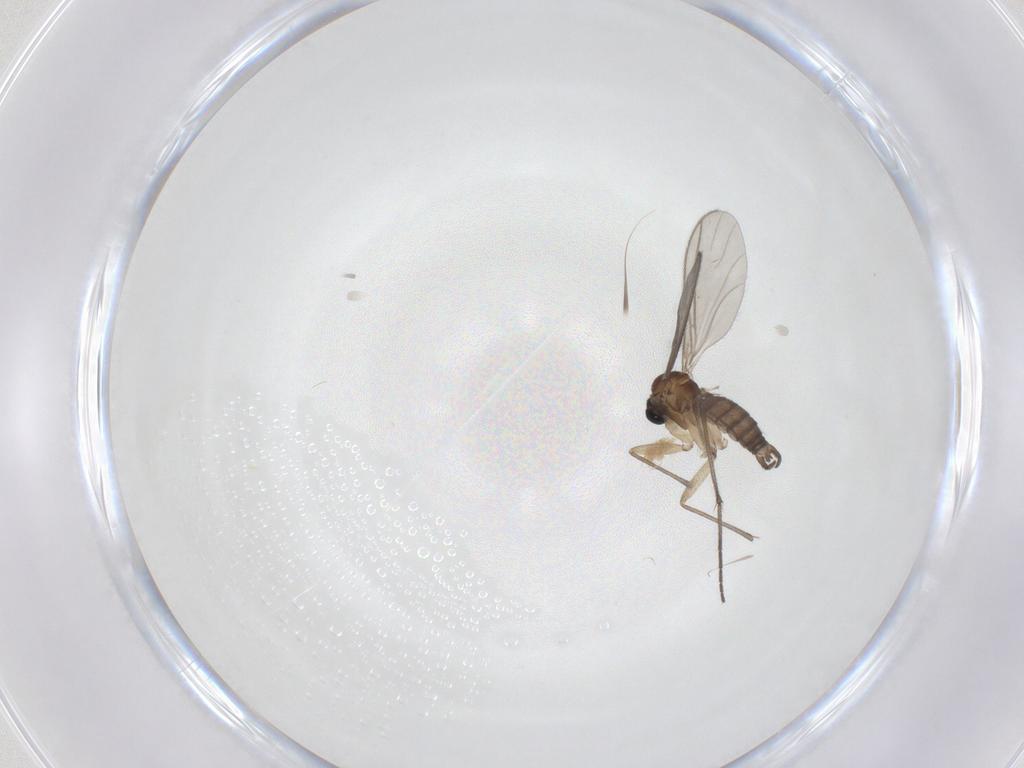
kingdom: Animalia
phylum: Arthropoda
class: Insecta
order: Diptera
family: Sciaridae
